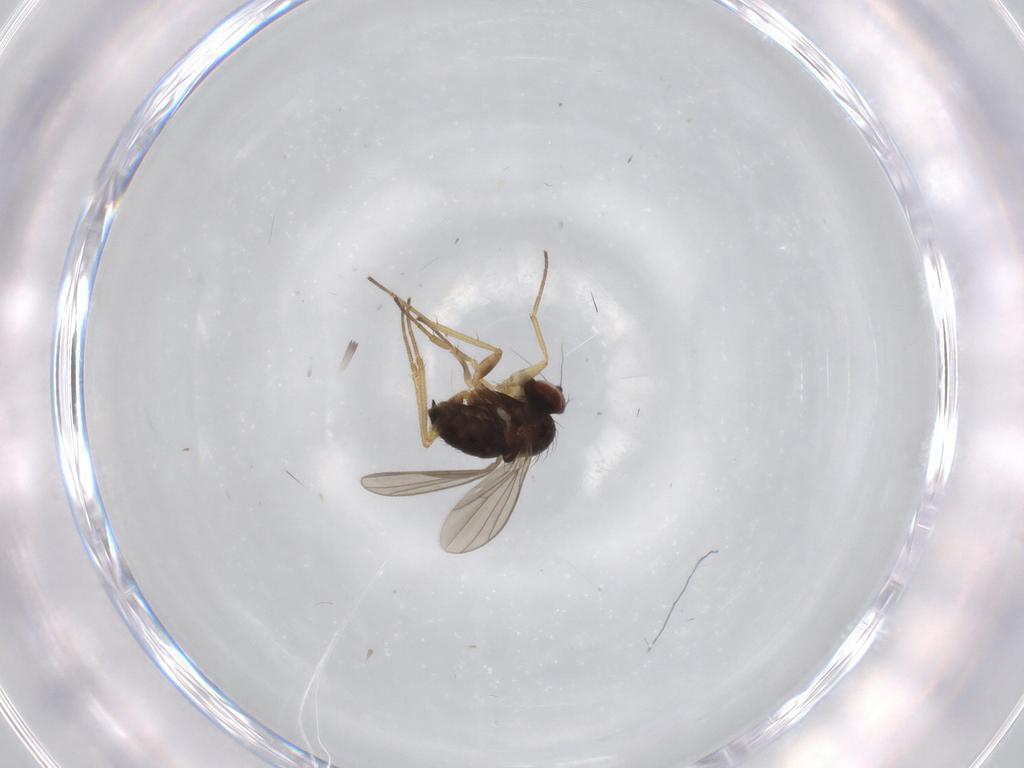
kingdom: Animalia
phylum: Arthropoda
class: Insecta
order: Diptera
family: Dolichopodidae
